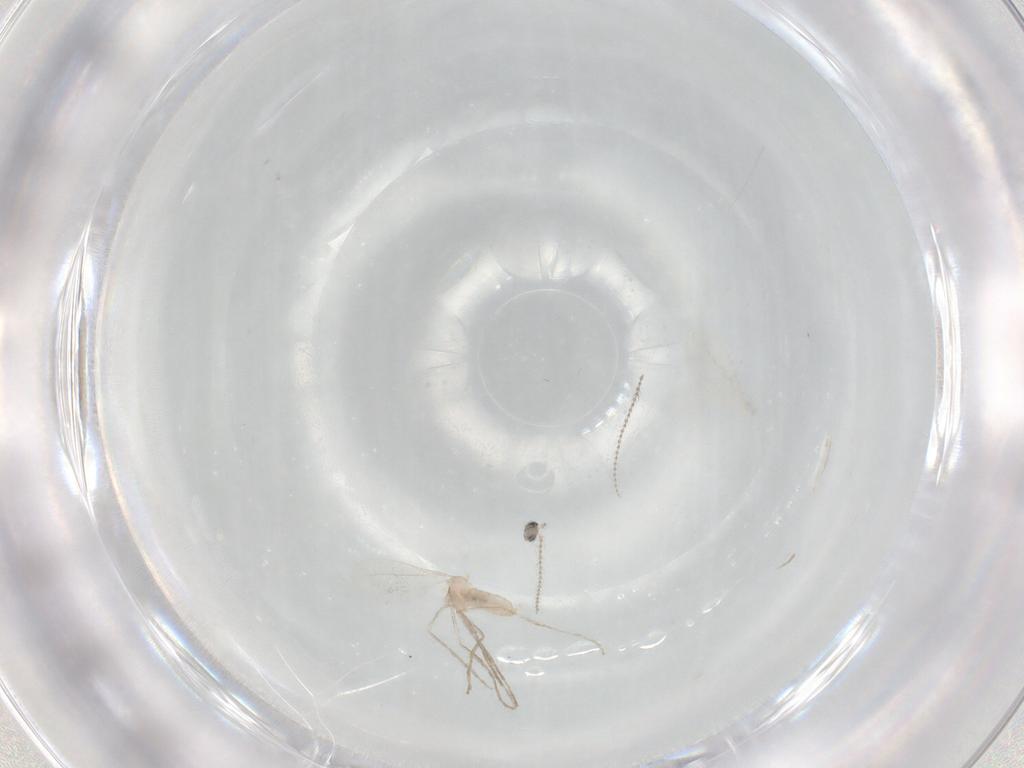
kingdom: Animalia
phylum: Arthropoda
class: Insecta
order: Diptera
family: Cecidomyiidae
